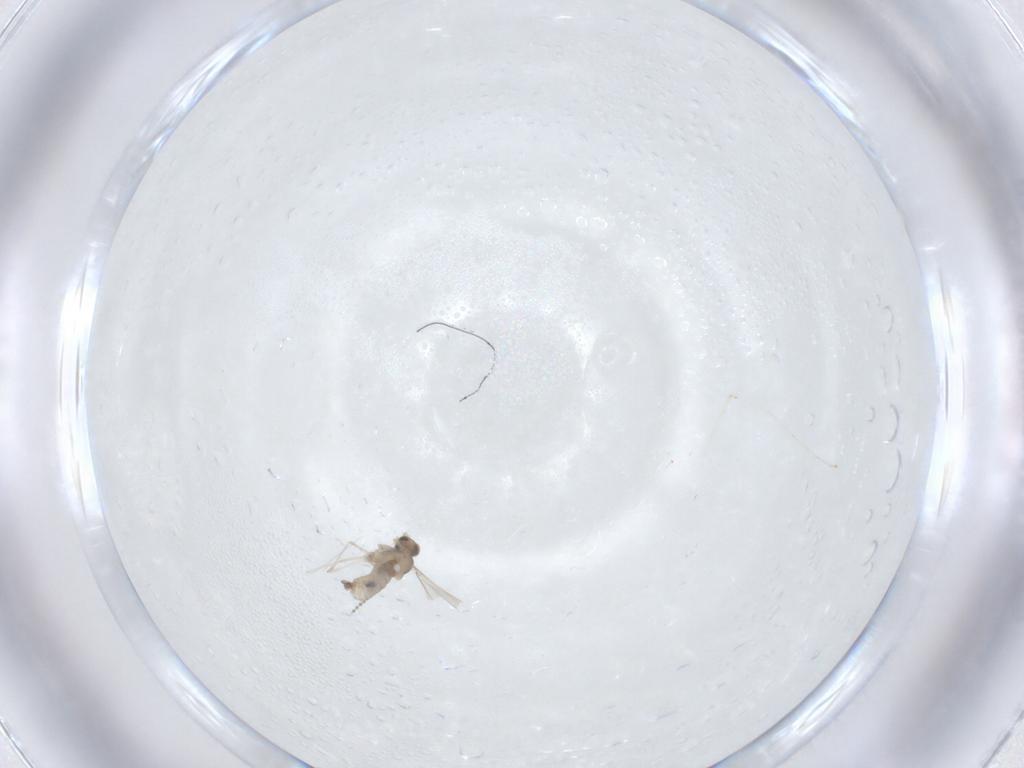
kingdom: Animalia
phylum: Arthropoda
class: Insecta
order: Diptera
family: Cecidomyiidae
